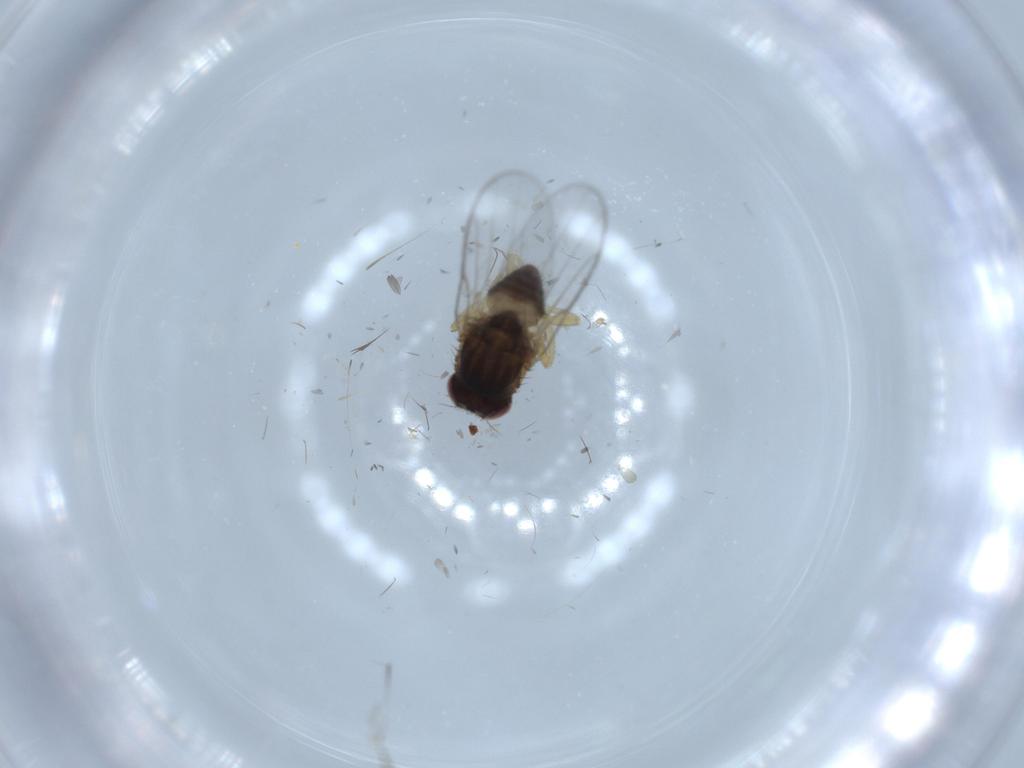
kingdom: Animalia
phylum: Arthropoda
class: Insecta
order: Diptera
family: Chloropidae
